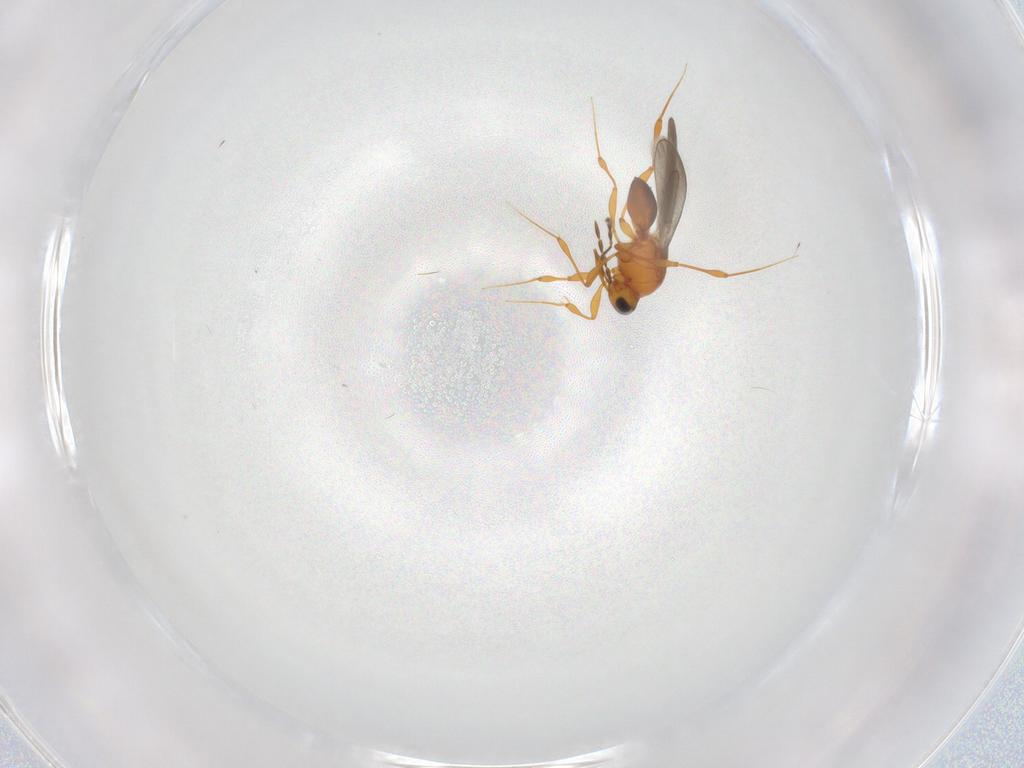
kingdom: Animalia
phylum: Arthropoda
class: Insecta
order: Hymenoptera
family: Platygastridae
